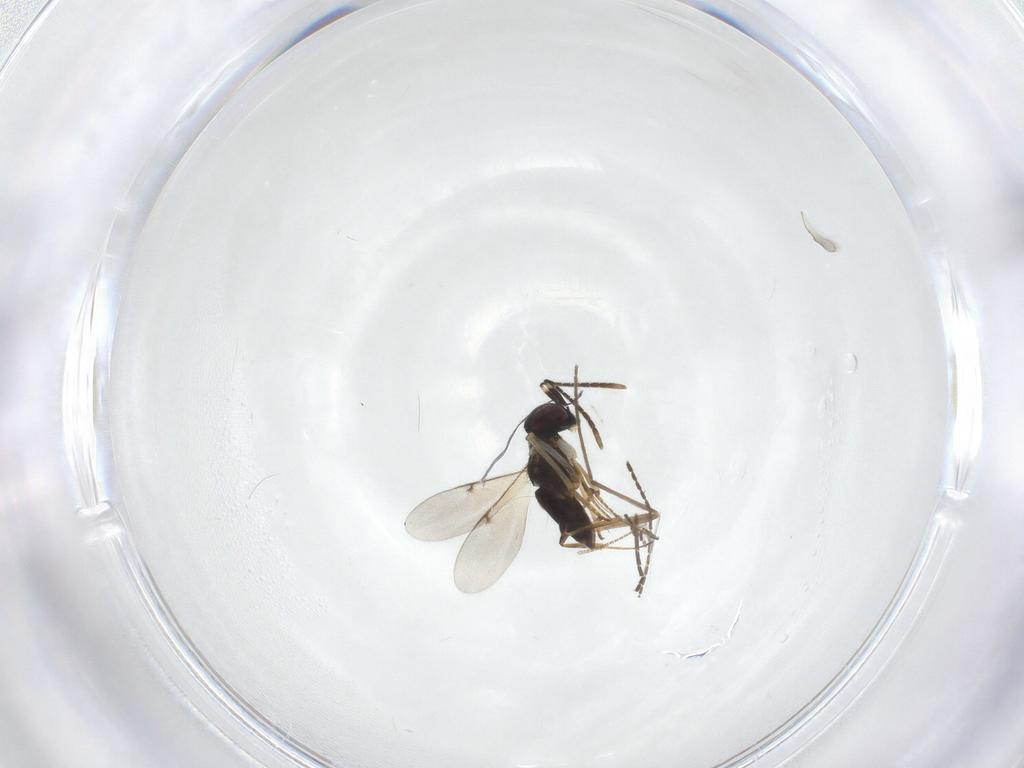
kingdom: Animalia
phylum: Arthropoda
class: Insecta
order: Hymenoptera
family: Encyrtidae
